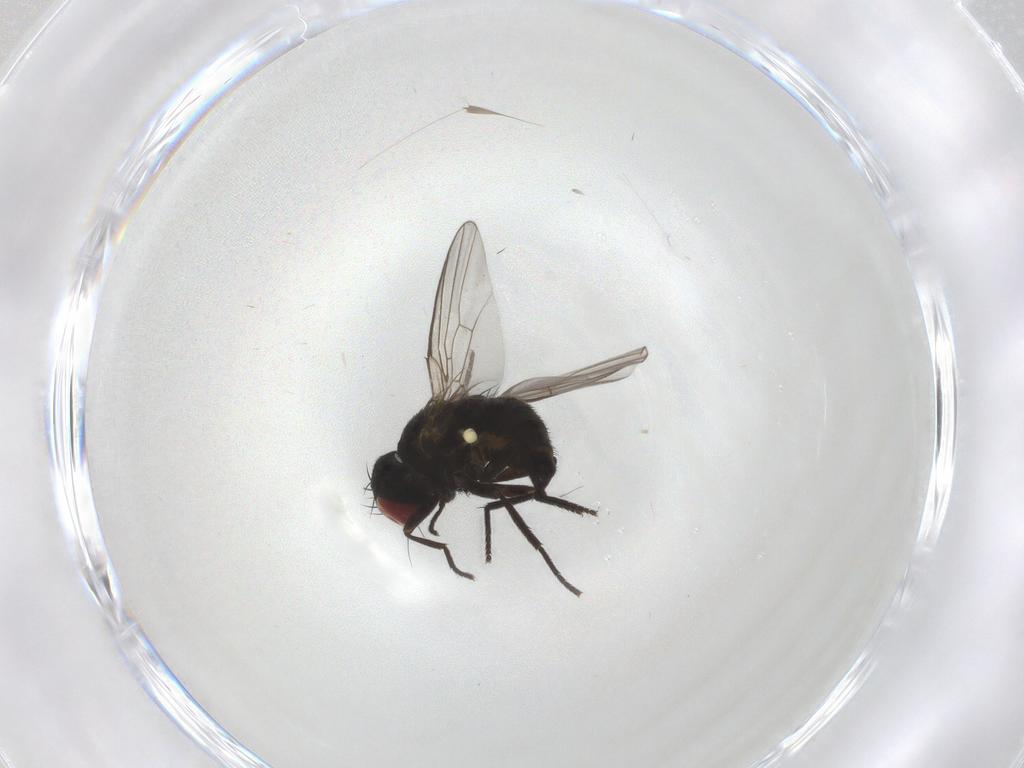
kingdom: Animalia
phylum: Arthropoda
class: Insecta
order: Diptera
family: Agromyzidae
